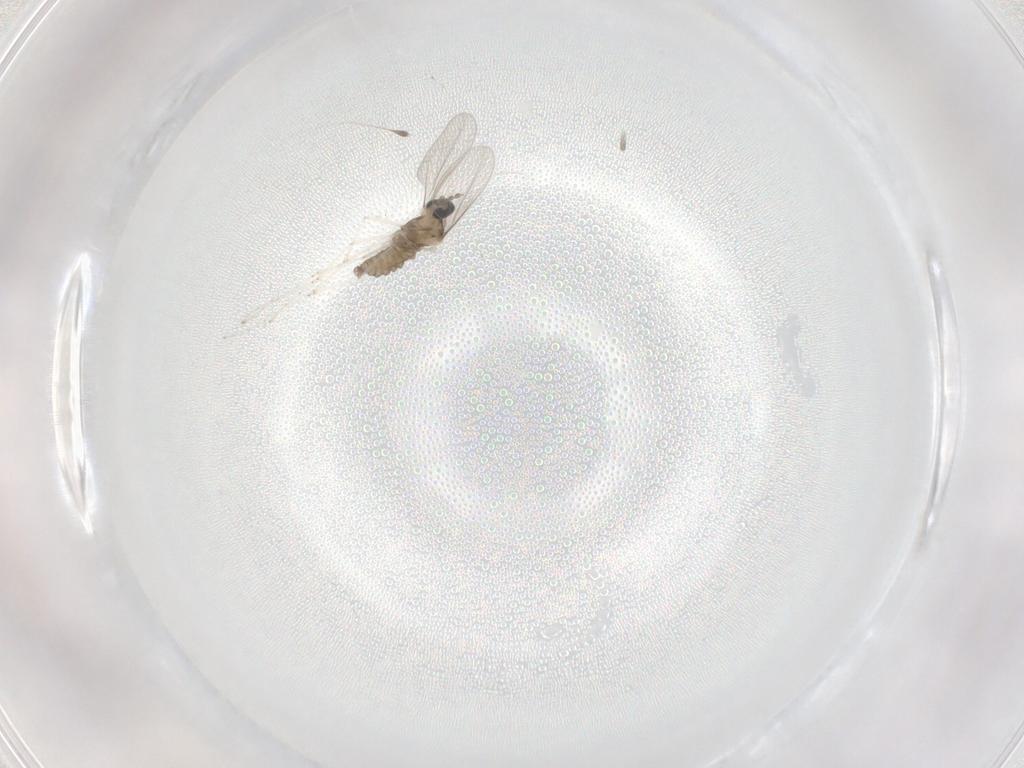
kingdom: Animalia
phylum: Arthropoda
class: Insecta
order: Diptera
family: Cecidomyiidae
